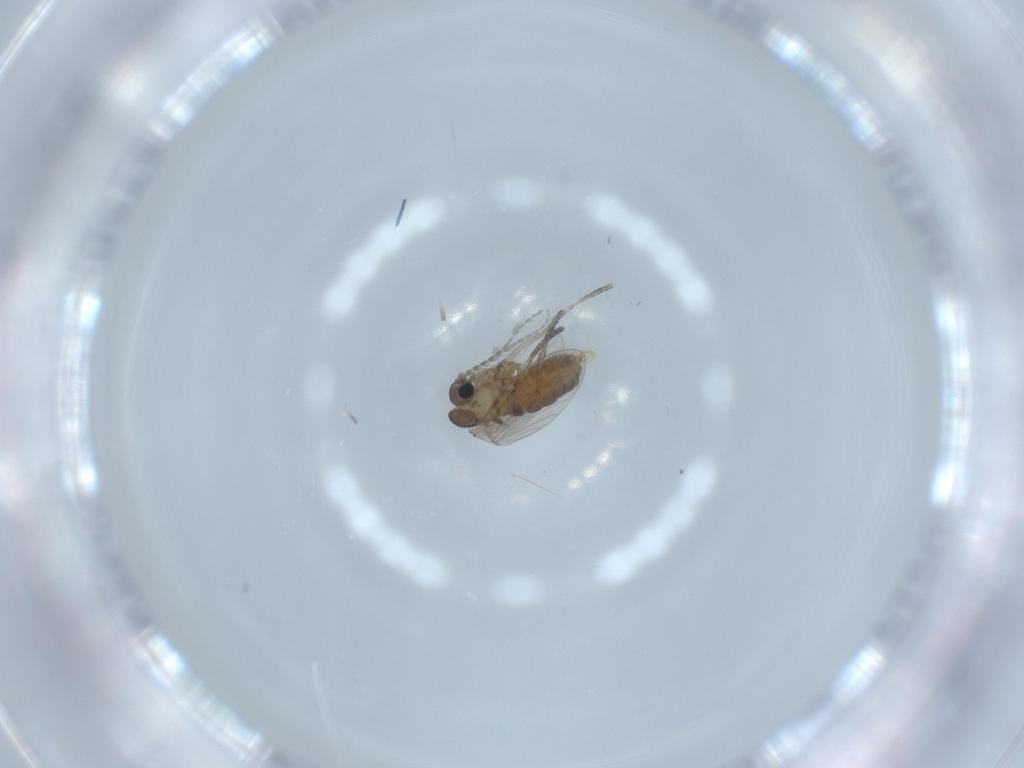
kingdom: Animalia
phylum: Arthropoda
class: Insecta
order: Diptera
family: Psychodidae
